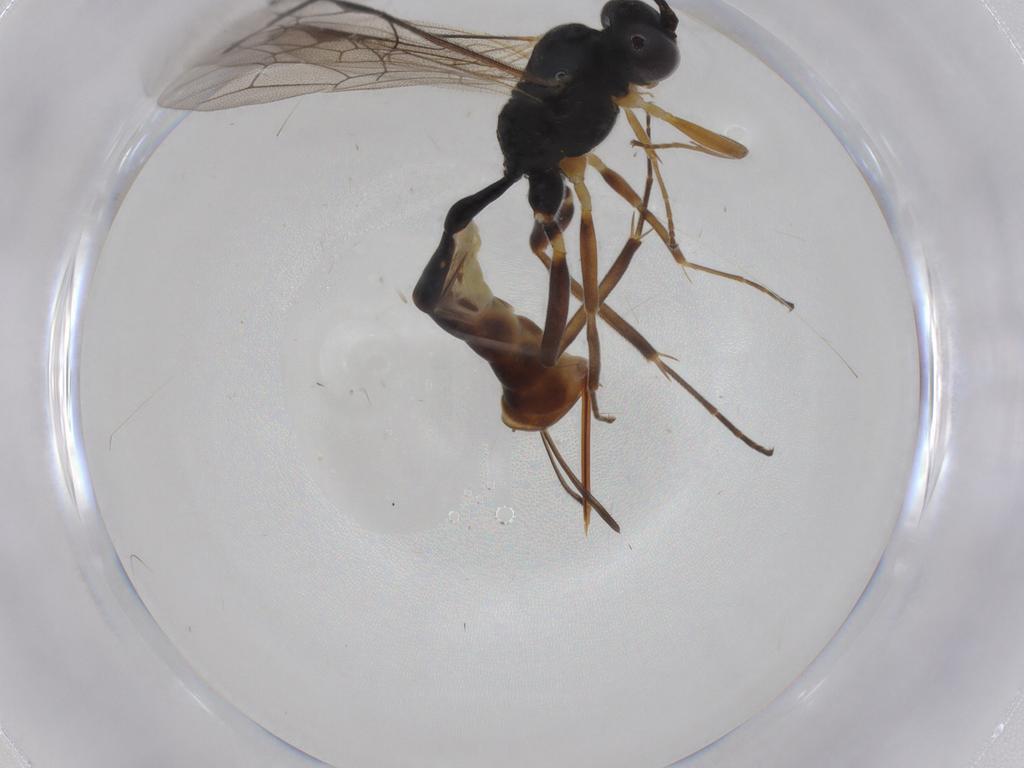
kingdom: Animalia
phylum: Arthropoda
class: Insecta
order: Hymenoptera
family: Ichneumonidae
